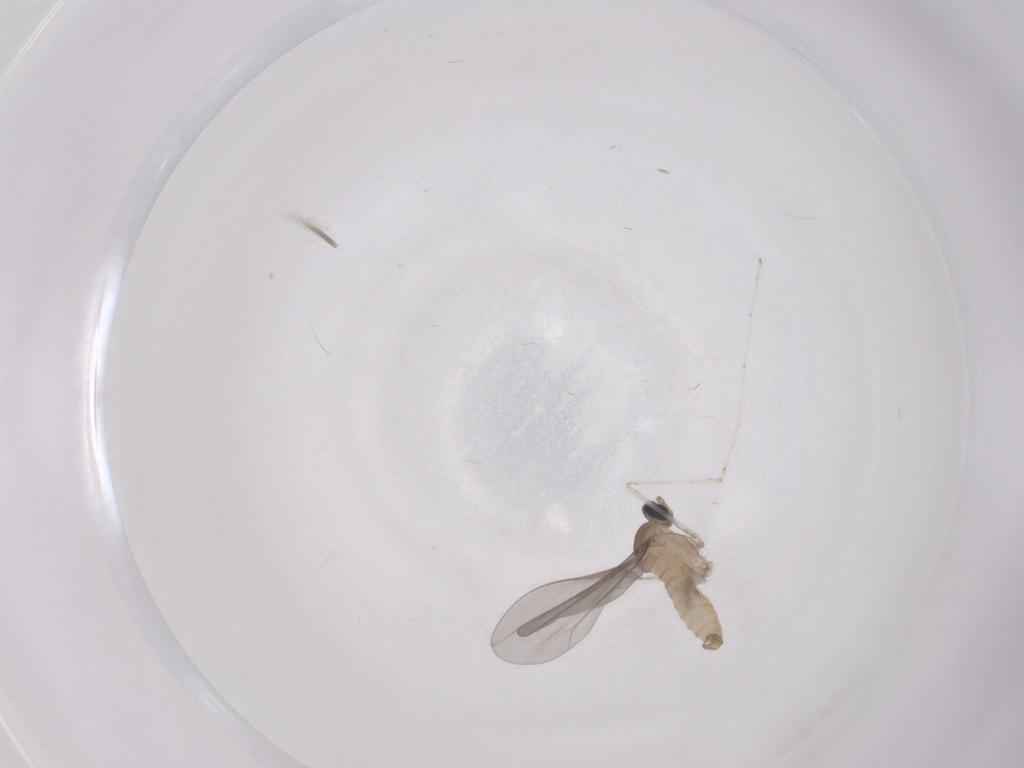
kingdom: Animalia
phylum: Arthropoda
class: Insecta
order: Diptera
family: Cecidomyiidae
